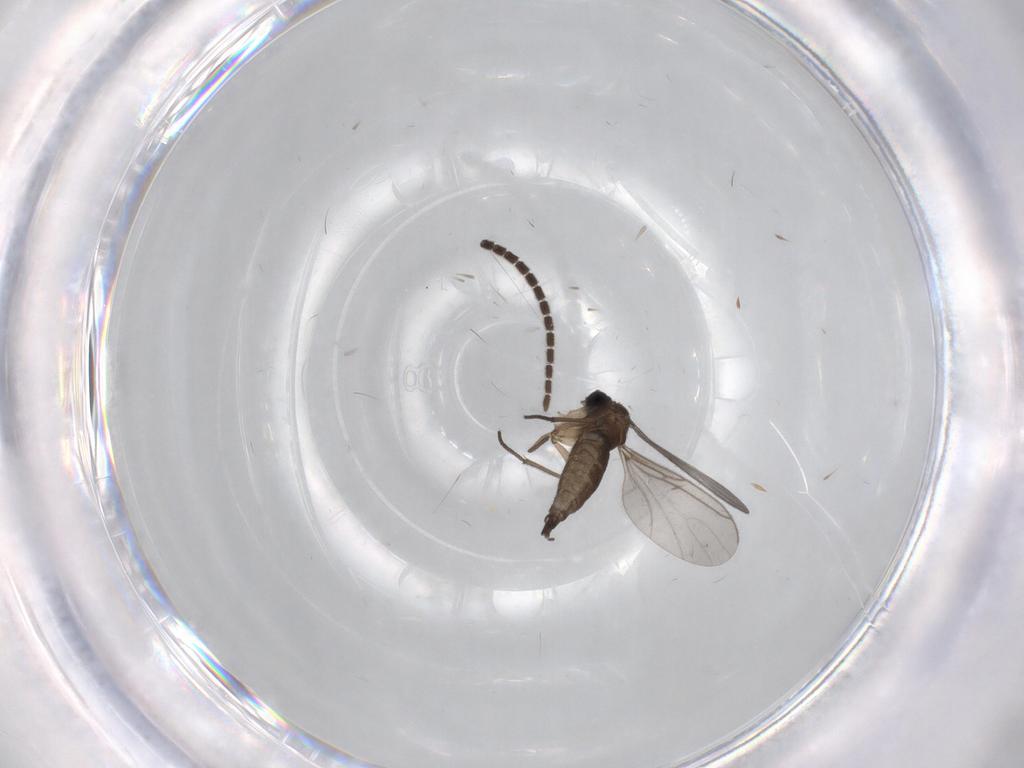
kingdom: Animalia
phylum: Arthropoda
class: Insecta
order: Diptera
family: Sciaridae
